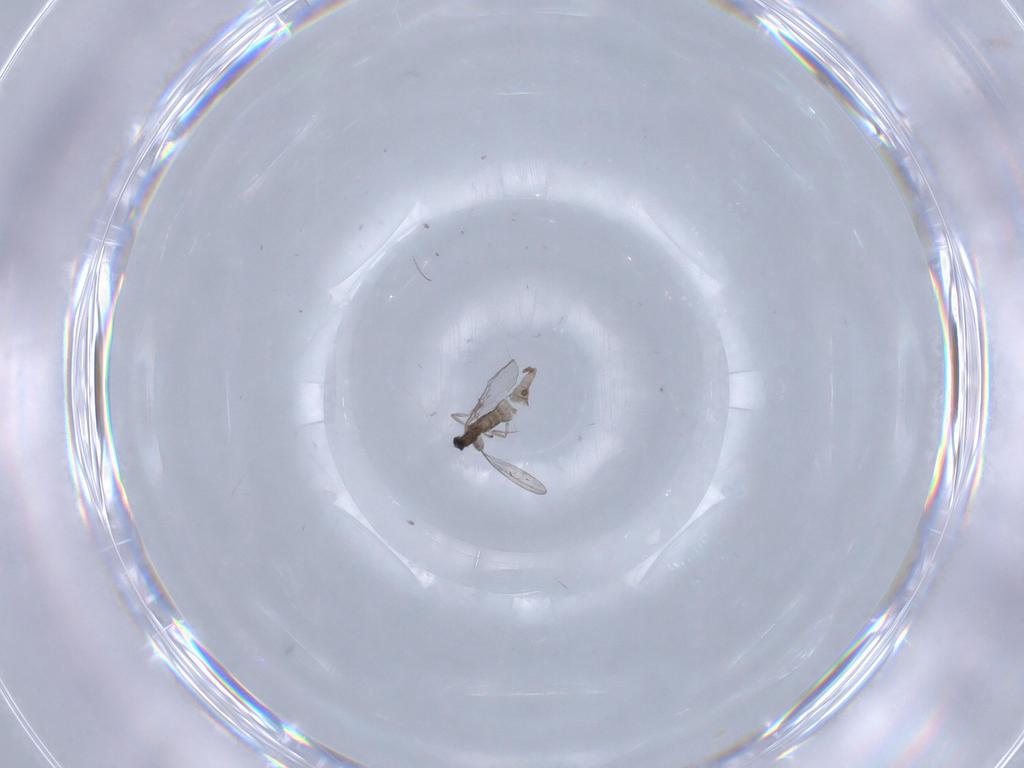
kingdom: Animalia
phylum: Arthropoda
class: Insecta
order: Diptera
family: Cecidomyiidae
